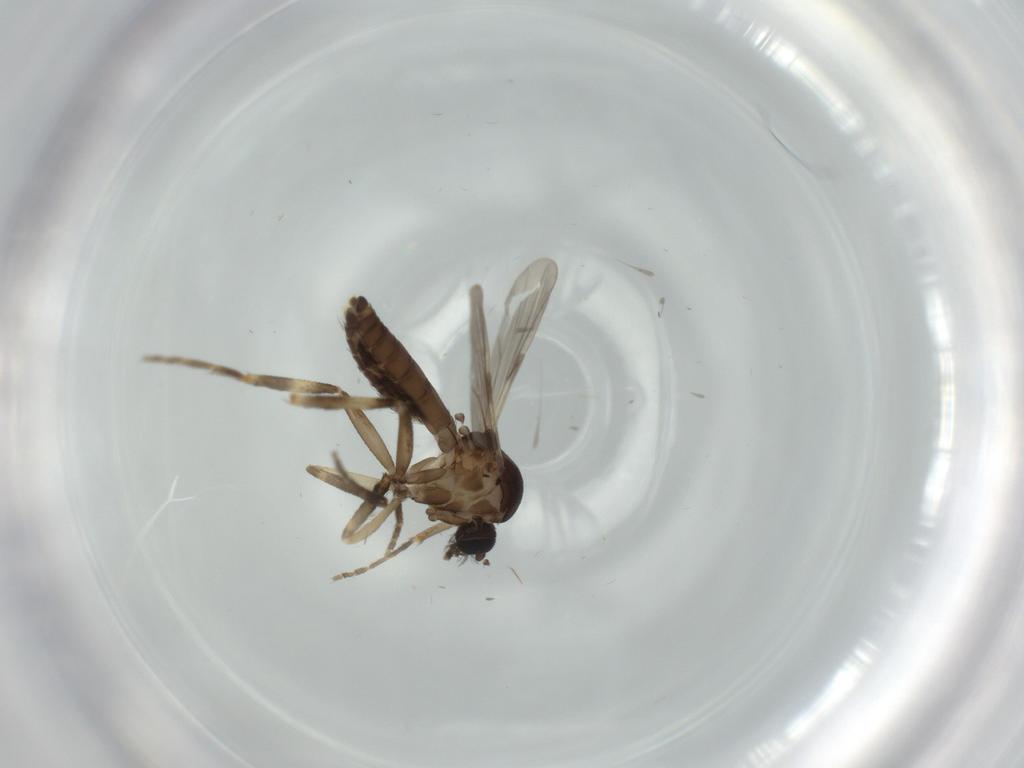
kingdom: Animalia
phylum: Arthropoda
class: Insecta
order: Diptera
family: Ceratopogonidae
